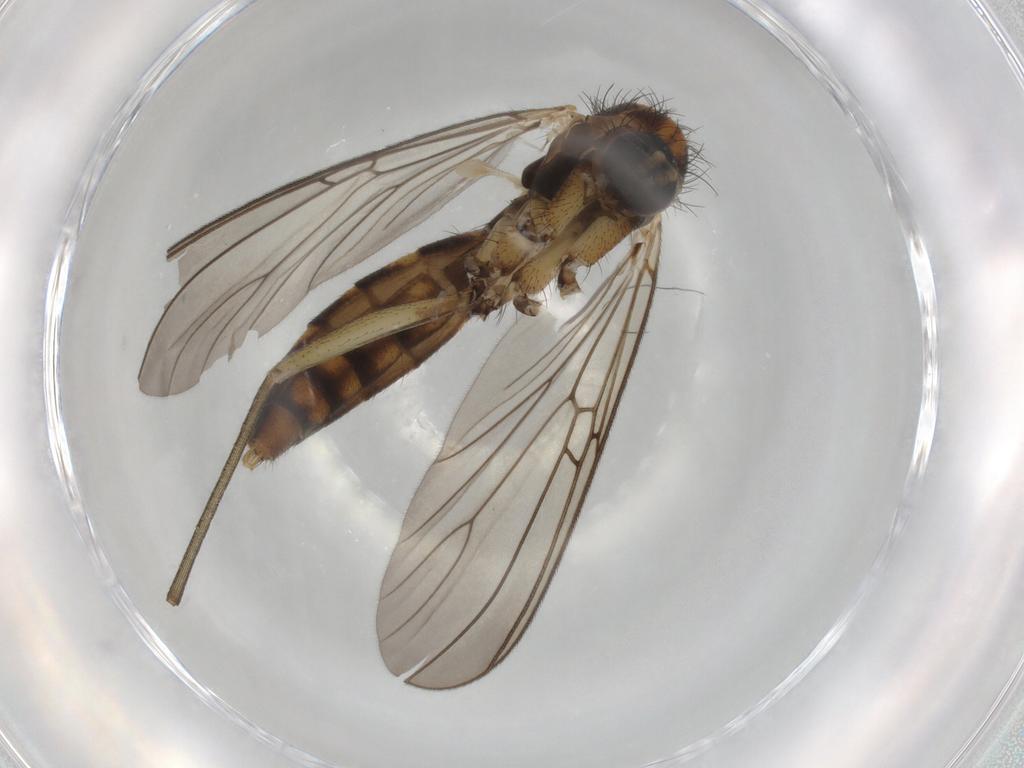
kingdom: Animalia
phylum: Arthropoda
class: Insecta
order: Diptera
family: Mycetophilidae
